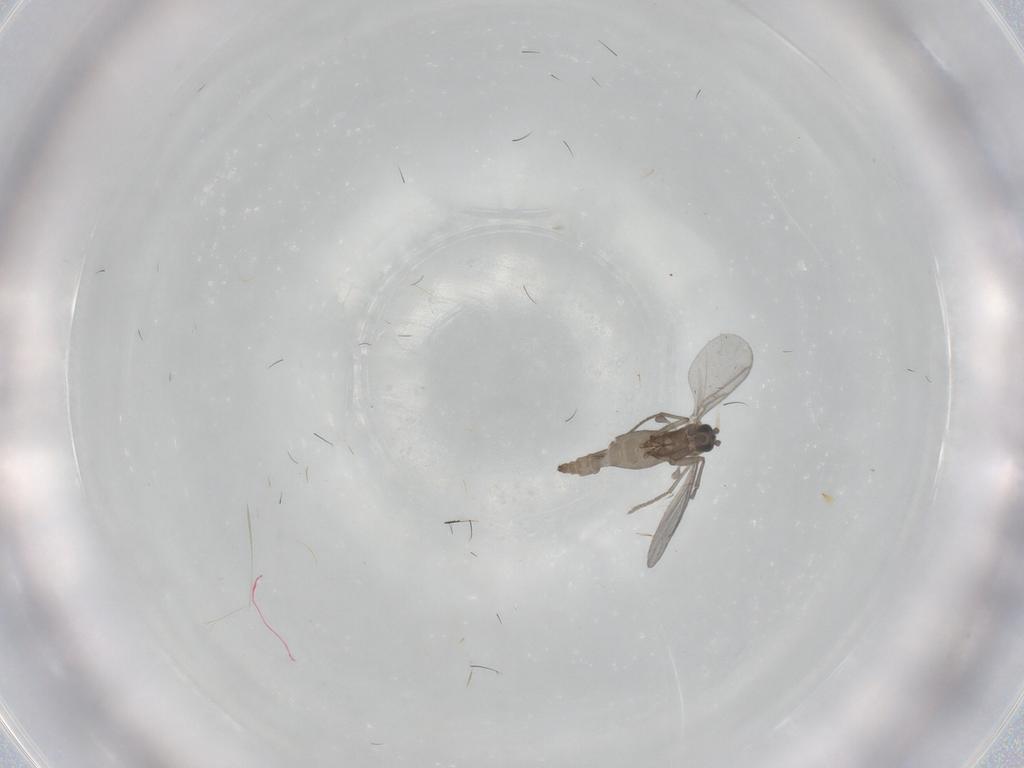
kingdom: Animalia
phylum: Arthropoda
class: Insecta
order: Diptera
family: Sciaridae
